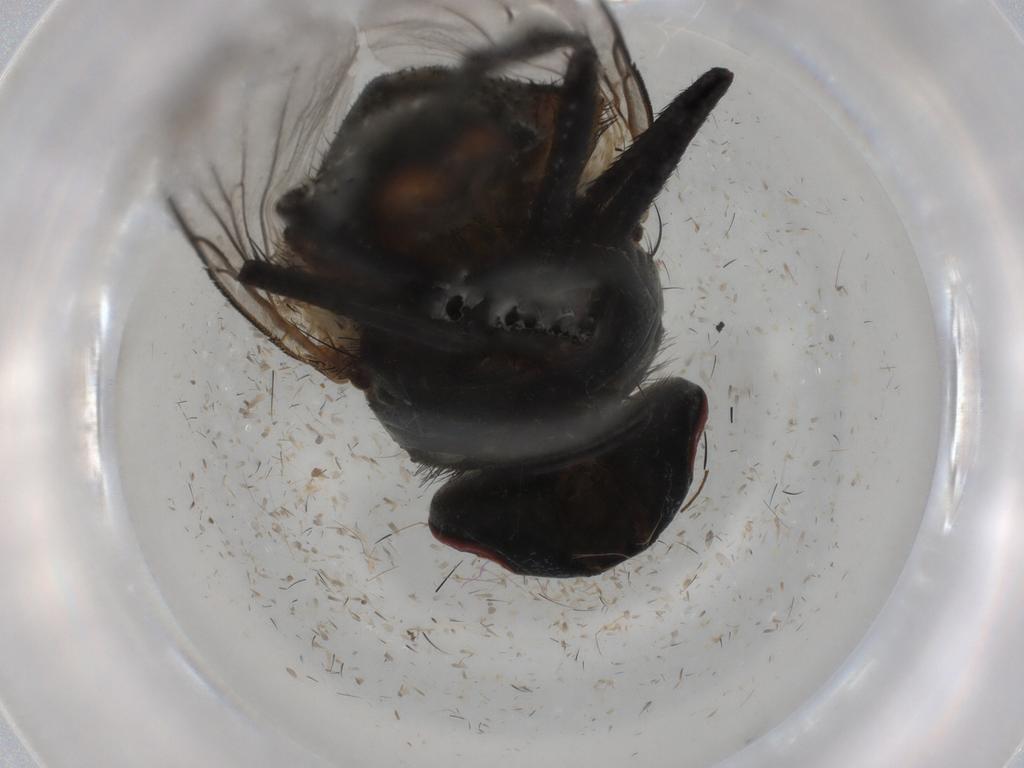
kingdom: Animalia
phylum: Arthropoda
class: Insecta
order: Diptera
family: Muscidae
